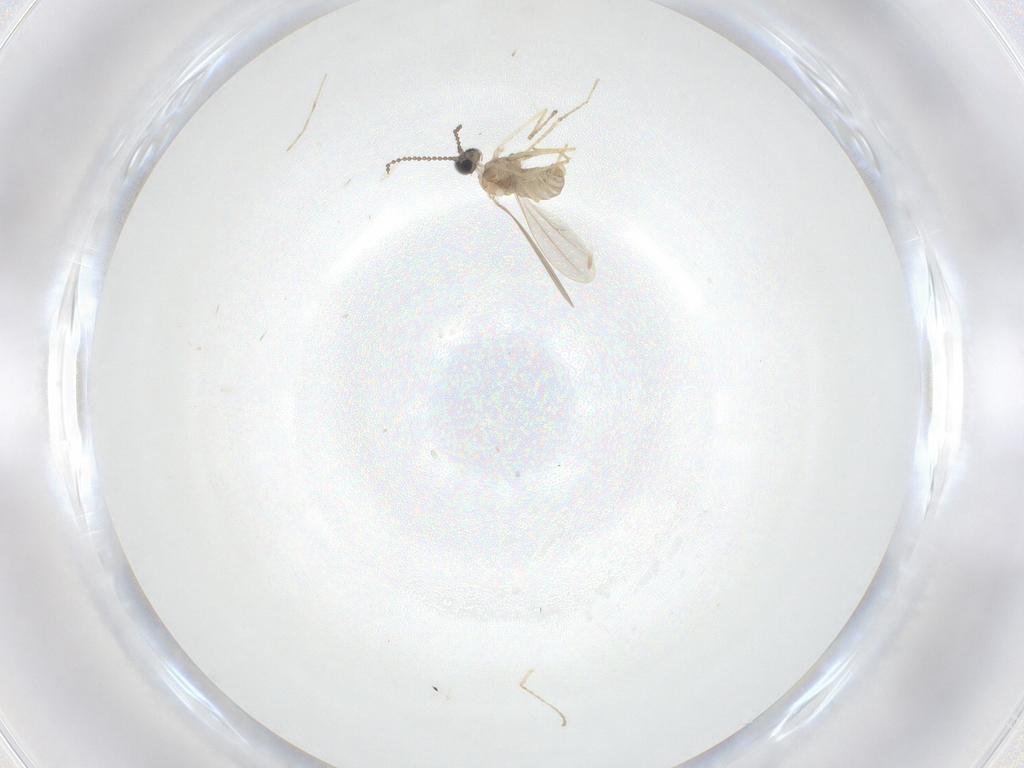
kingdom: Animalia
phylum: Arthropoda
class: Insecta
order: Diptera
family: Cecidomyiidae
